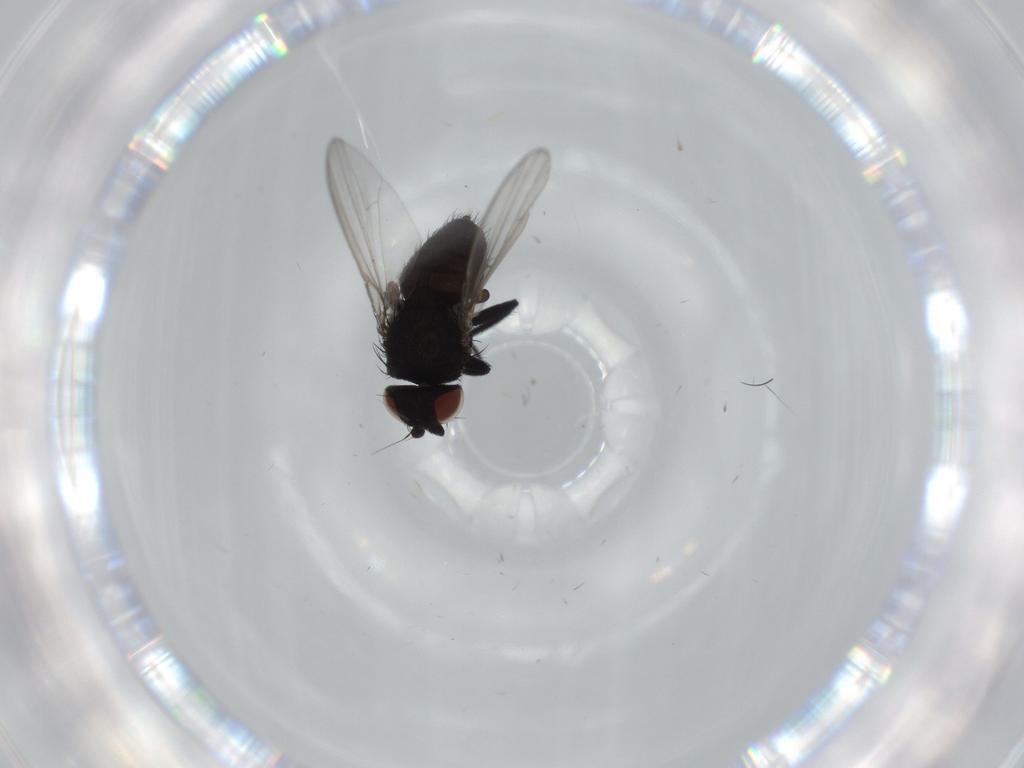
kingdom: Animalia
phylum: Arthropoda
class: Insecta
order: Diptera
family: Milichiidae
